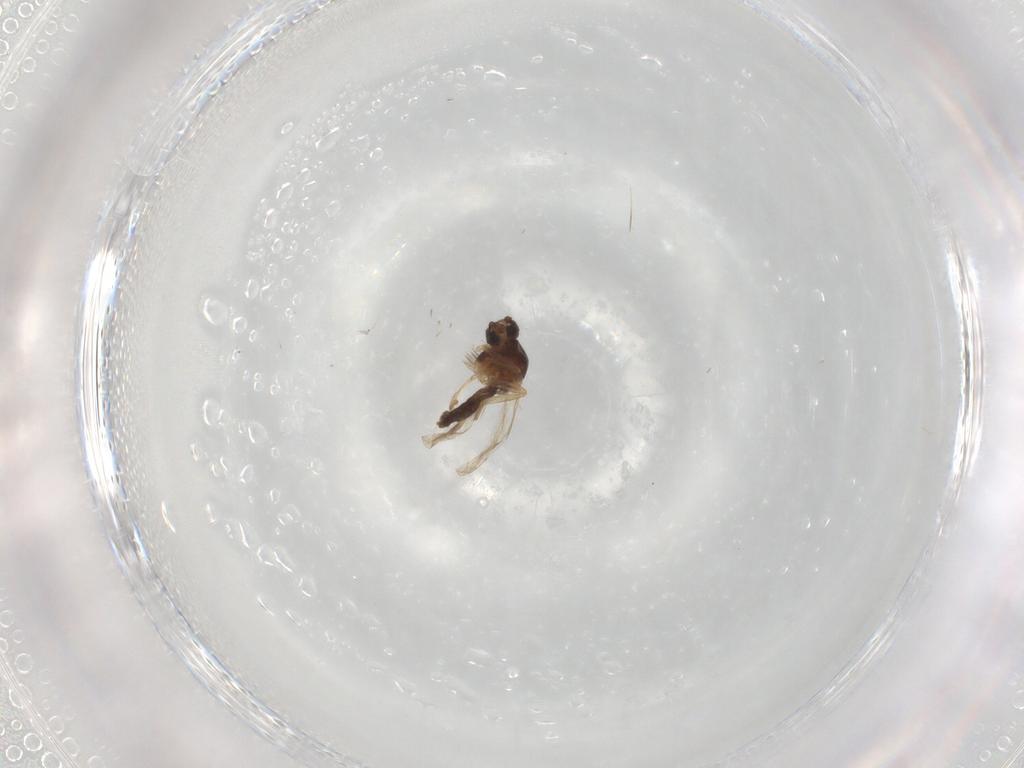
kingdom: Animalia
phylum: Arthropoda
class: Insecta
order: Diptera
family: Ceratopogonidae
